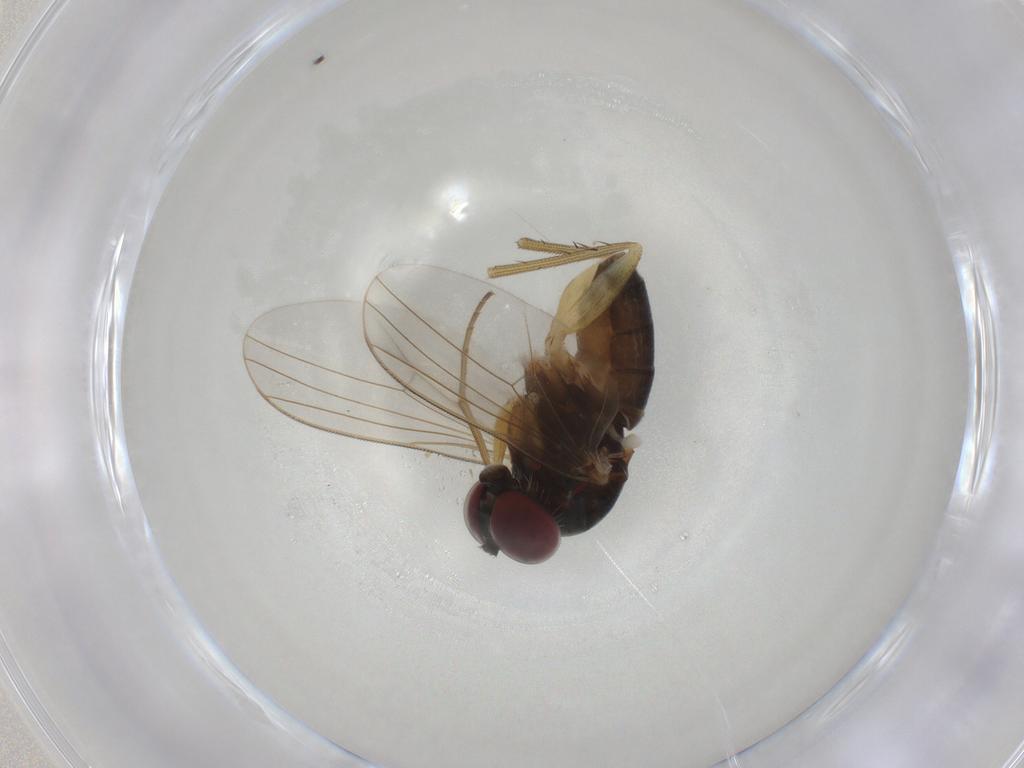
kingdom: Animalia
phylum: Arthropoda
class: Insecta
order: Diptera
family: Dolichopodidae
